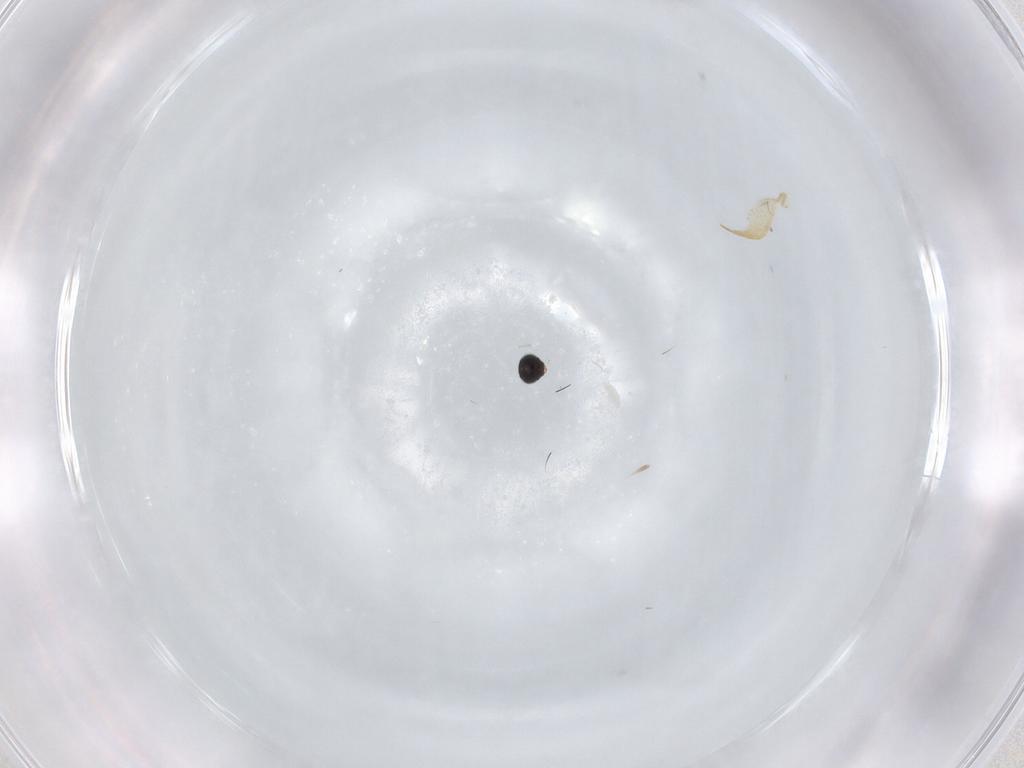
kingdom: Animalia
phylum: Arthropoda
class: Insecta
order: Hymenoptera
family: Scelionidae
